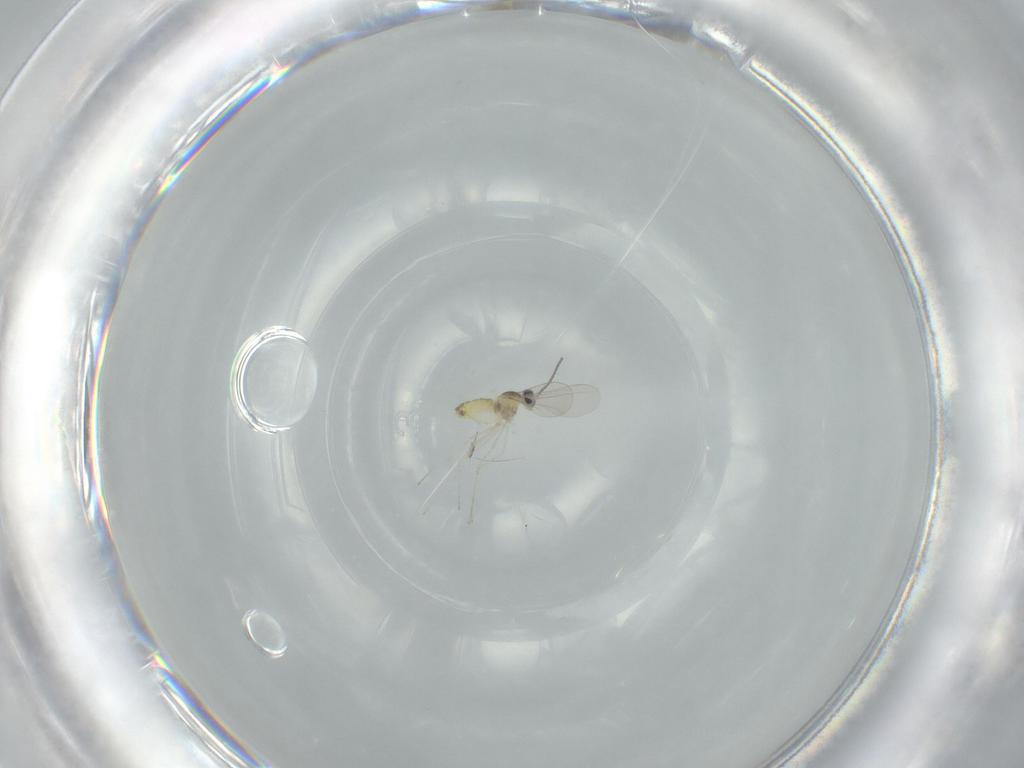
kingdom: Animalia
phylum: Arthropoda
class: Insecta
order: Diptera
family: Cecidomyiidae
